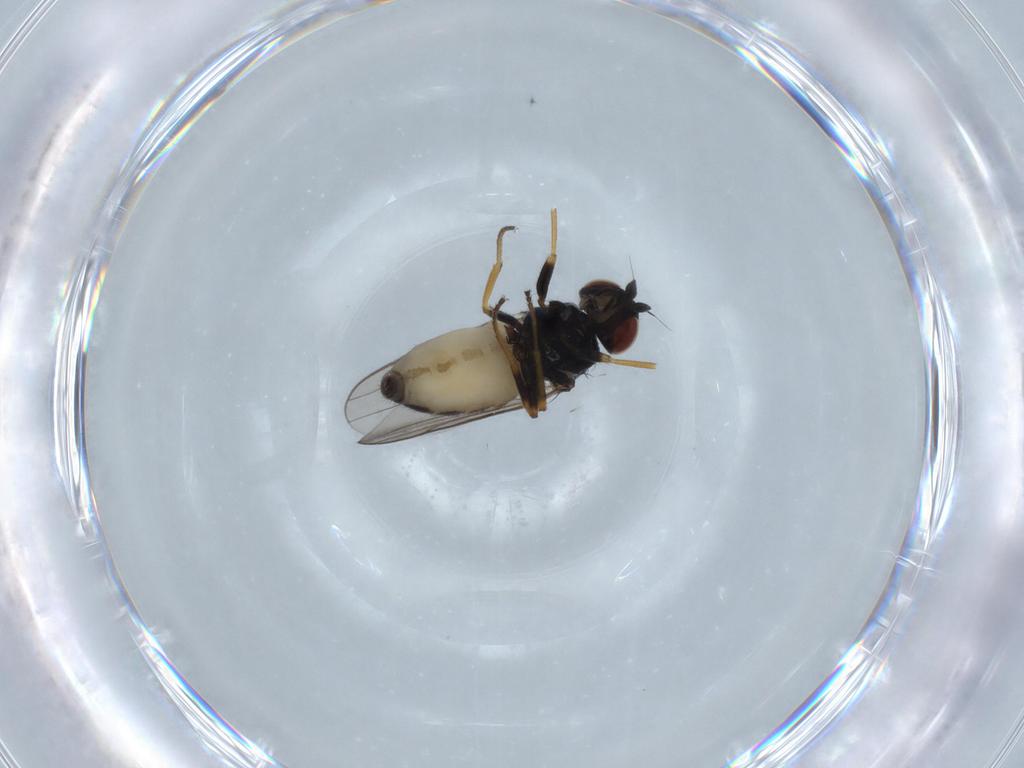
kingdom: Animalia
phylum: Arthropoda
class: Insecta
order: Diptera
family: Chloropidae
